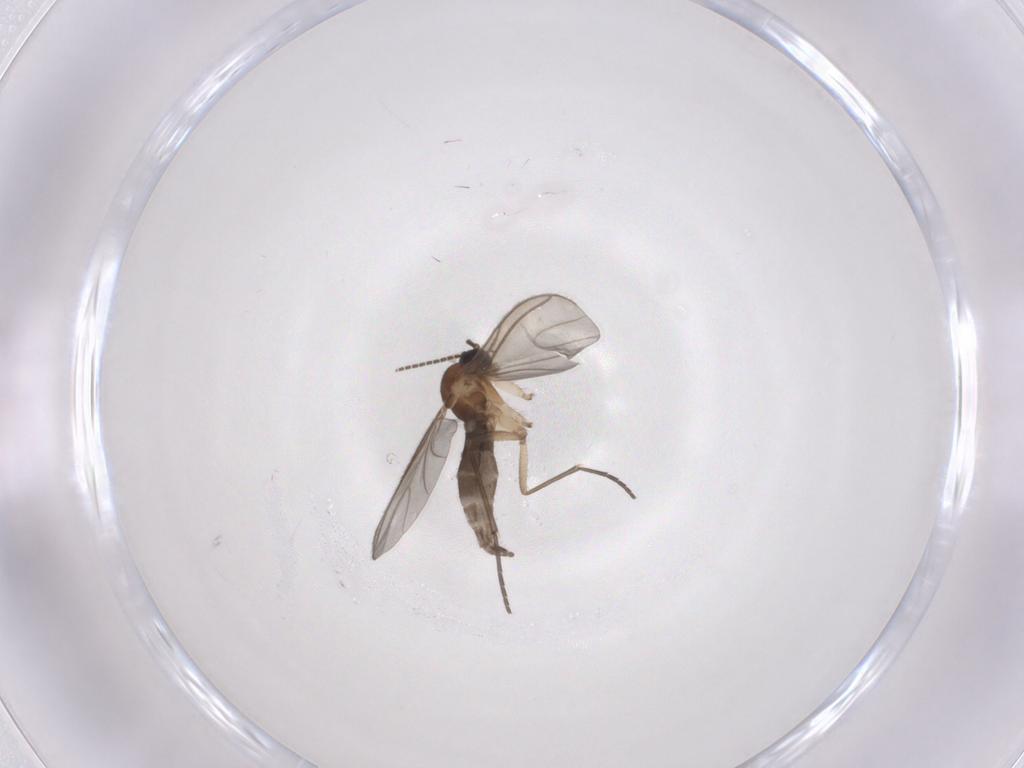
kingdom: Animalia
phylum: Arthropoda
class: Insecta
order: Diptera
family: Sciaridae
